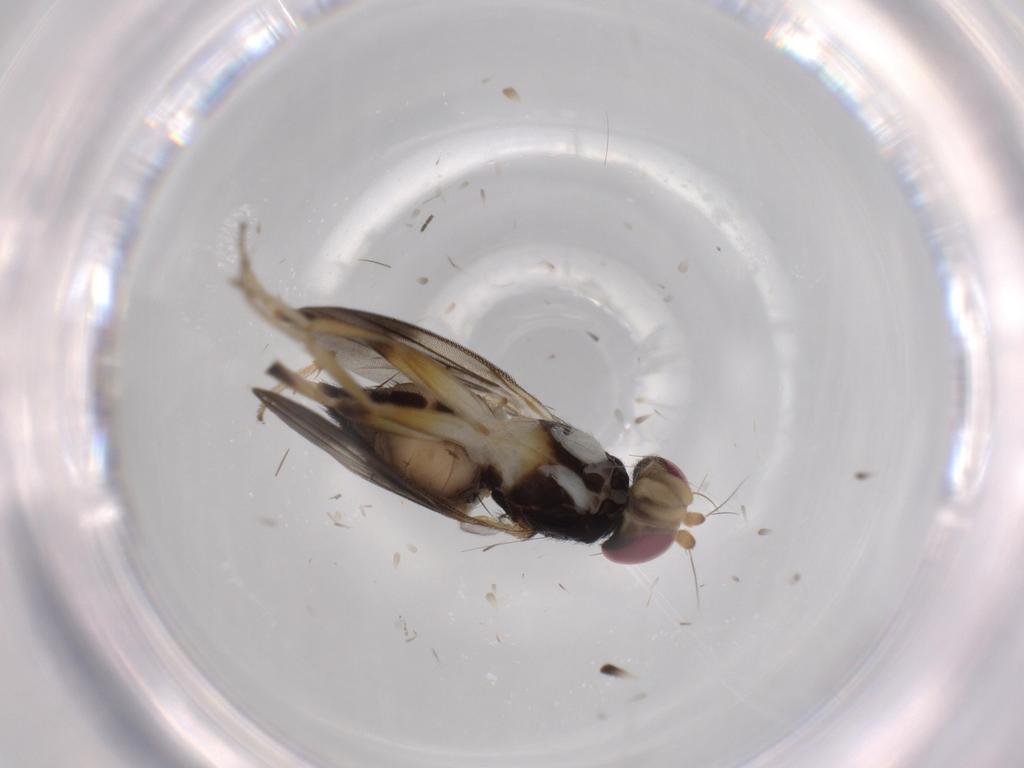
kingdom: Animalia
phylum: Arthropoda
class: Insecta
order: Diptera
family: Clusiidae
